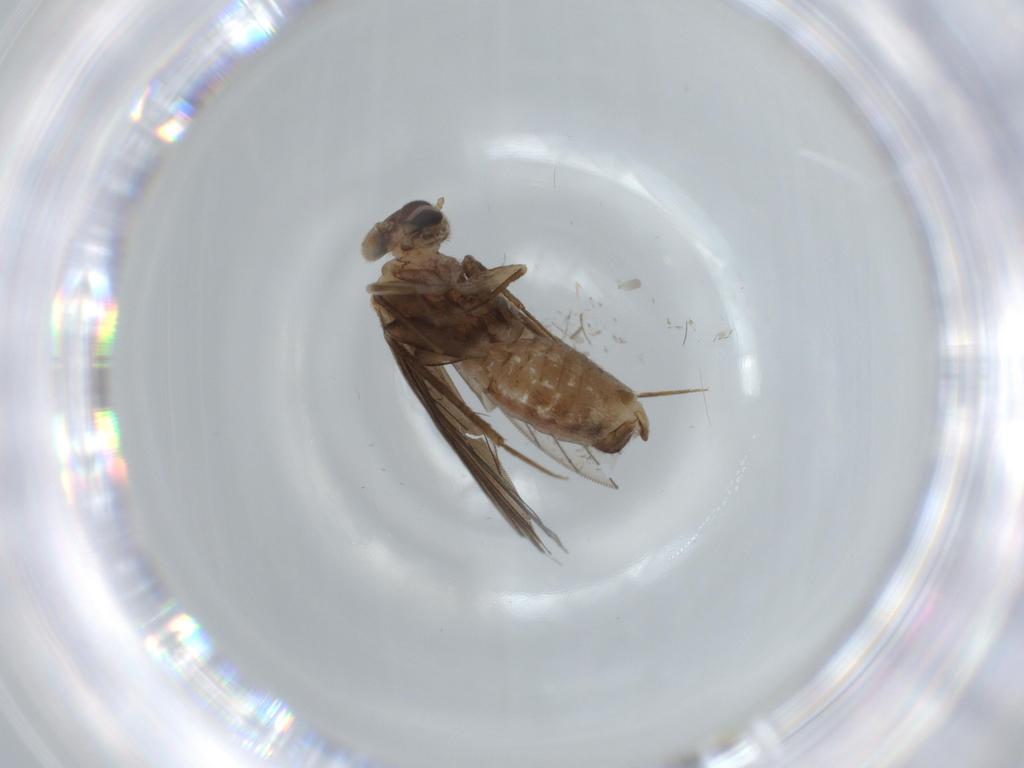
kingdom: Animalia
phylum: Arthropoda
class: Insecta
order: Psocodea
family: Lepidopsocidae
